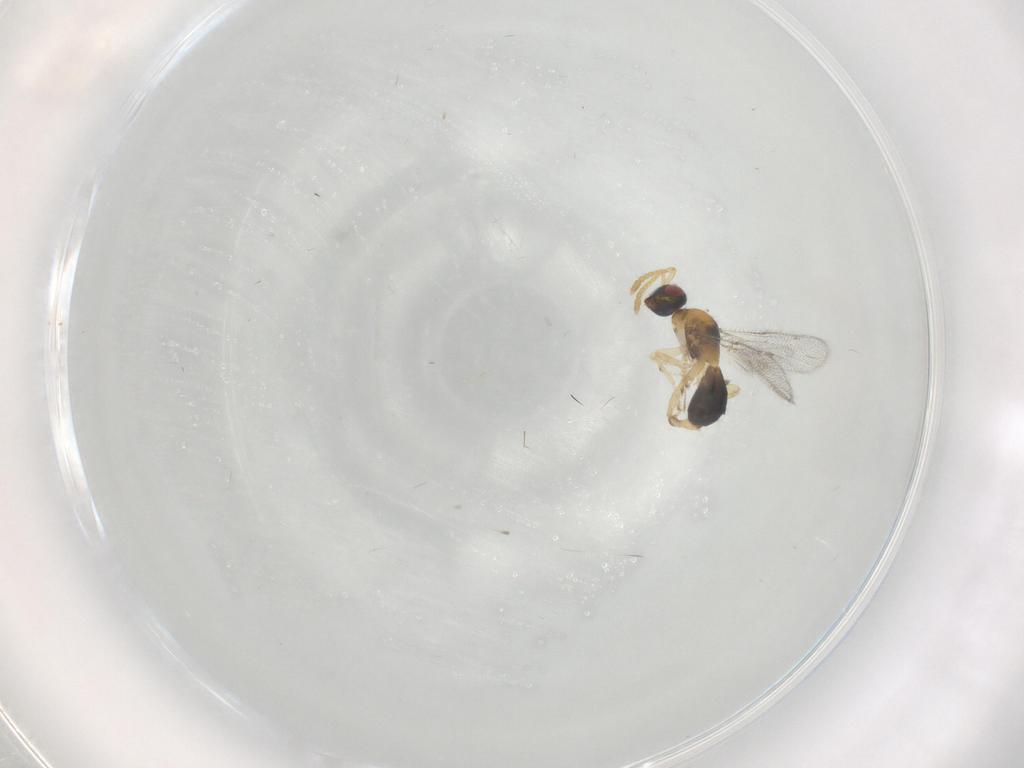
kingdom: Animalia
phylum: Arthropoda
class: Insecta
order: Hymenoptera
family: Torymidae
